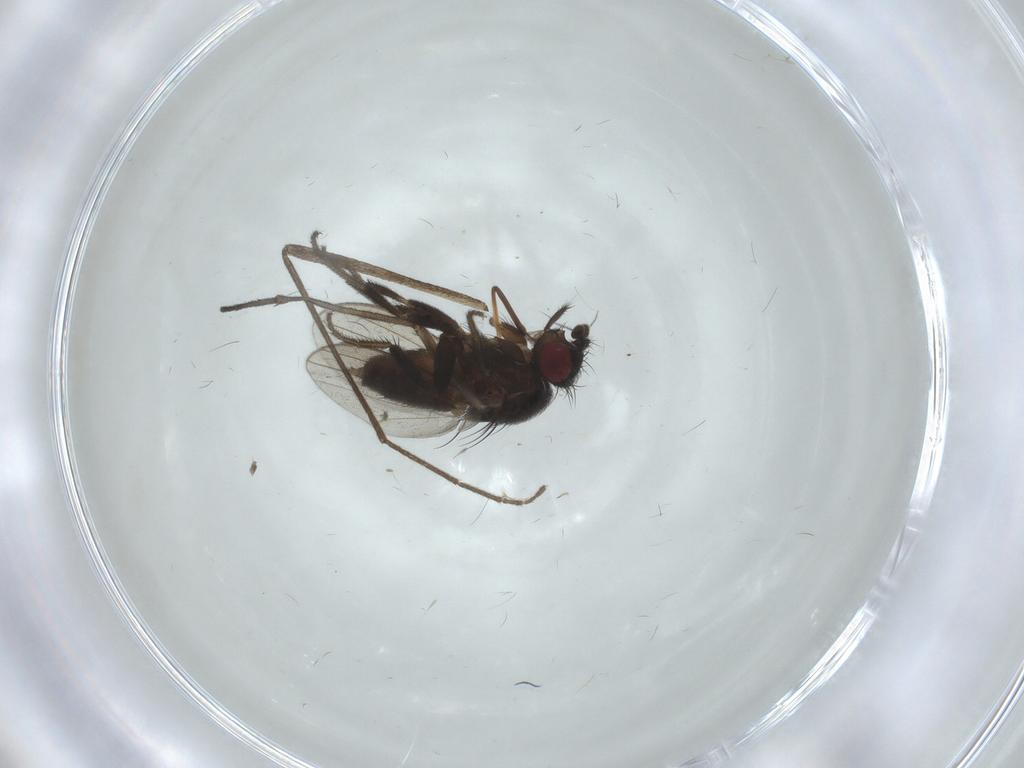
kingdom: Animalia
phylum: Arthropoda
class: Insecta
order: Diptera
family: Milichiidae
